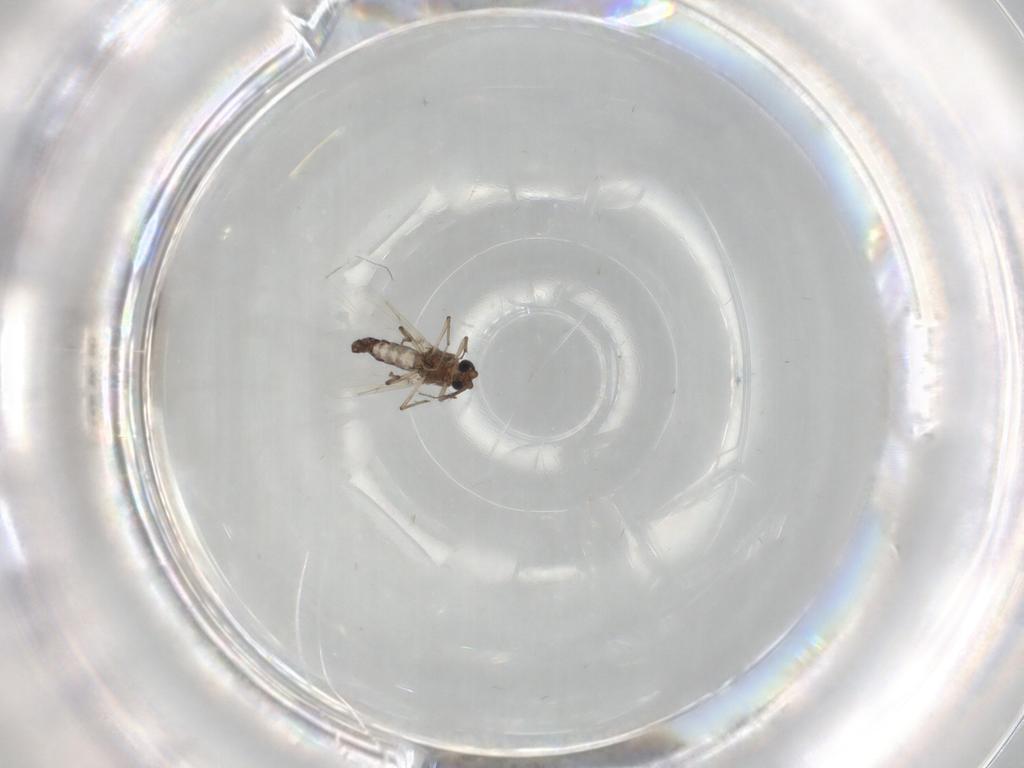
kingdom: Animalia
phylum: Arthropoda
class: Insecta
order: Diptera
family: Ceratopogonidae
